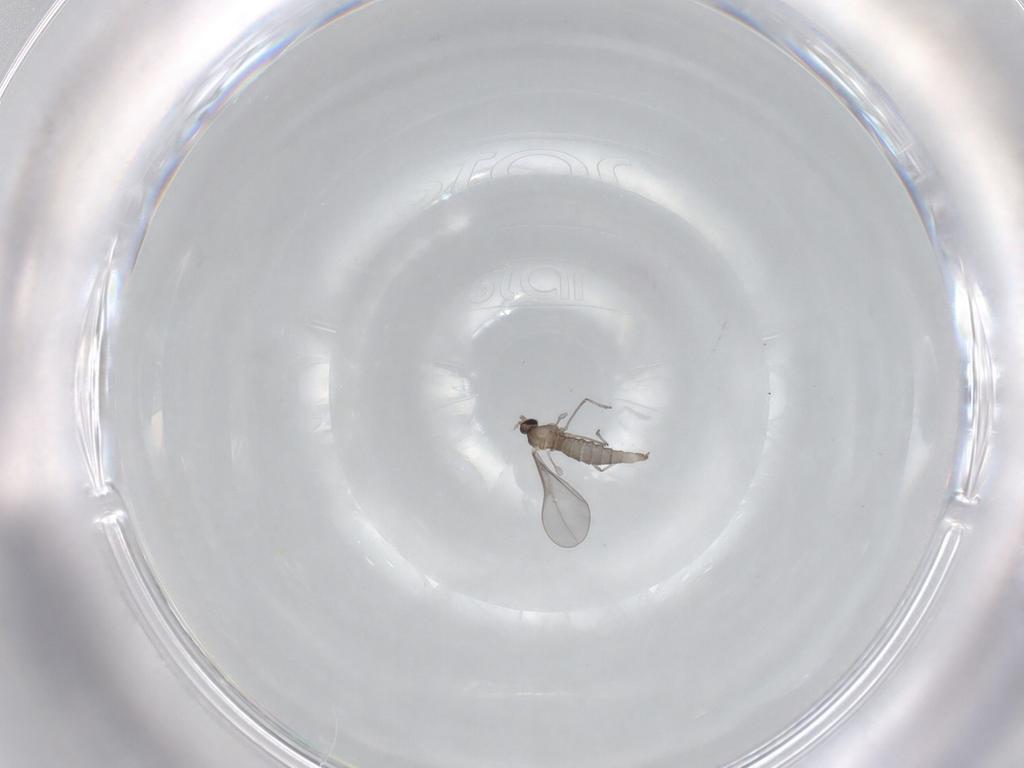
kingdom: Animalia
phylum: Arthropoda
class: Insecta
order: Diptera
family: Cecidomyiidae
